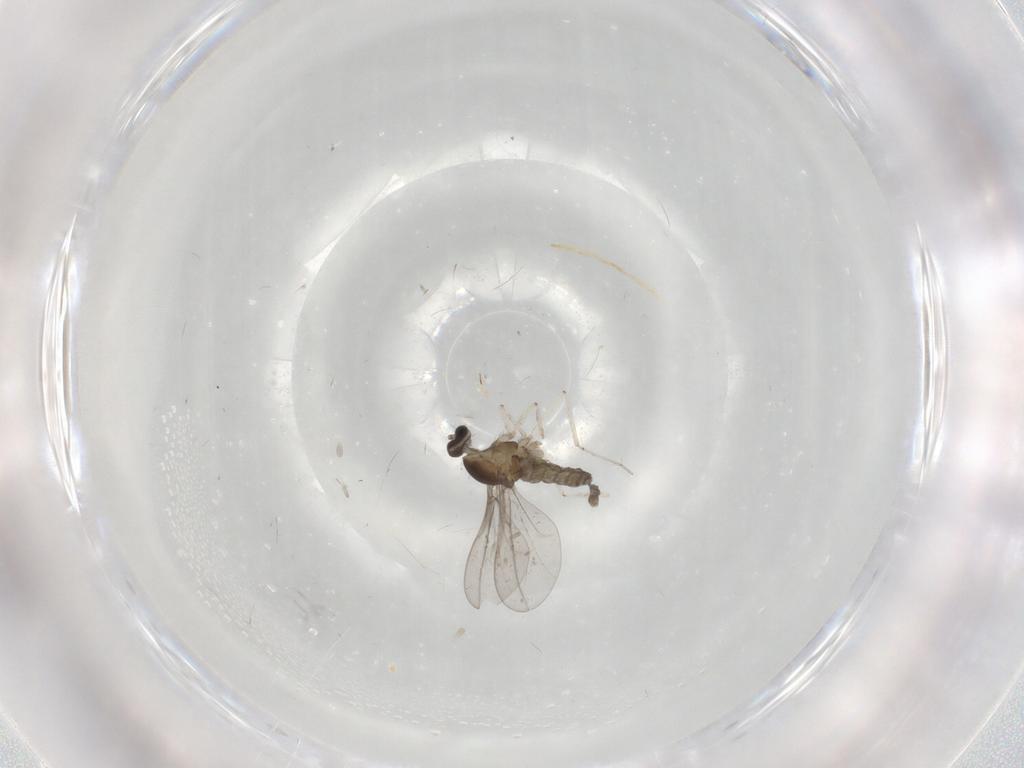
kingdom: Animalia
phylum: Arthropoda
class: Insecta
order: Diptera
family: Cecidomyiidae
